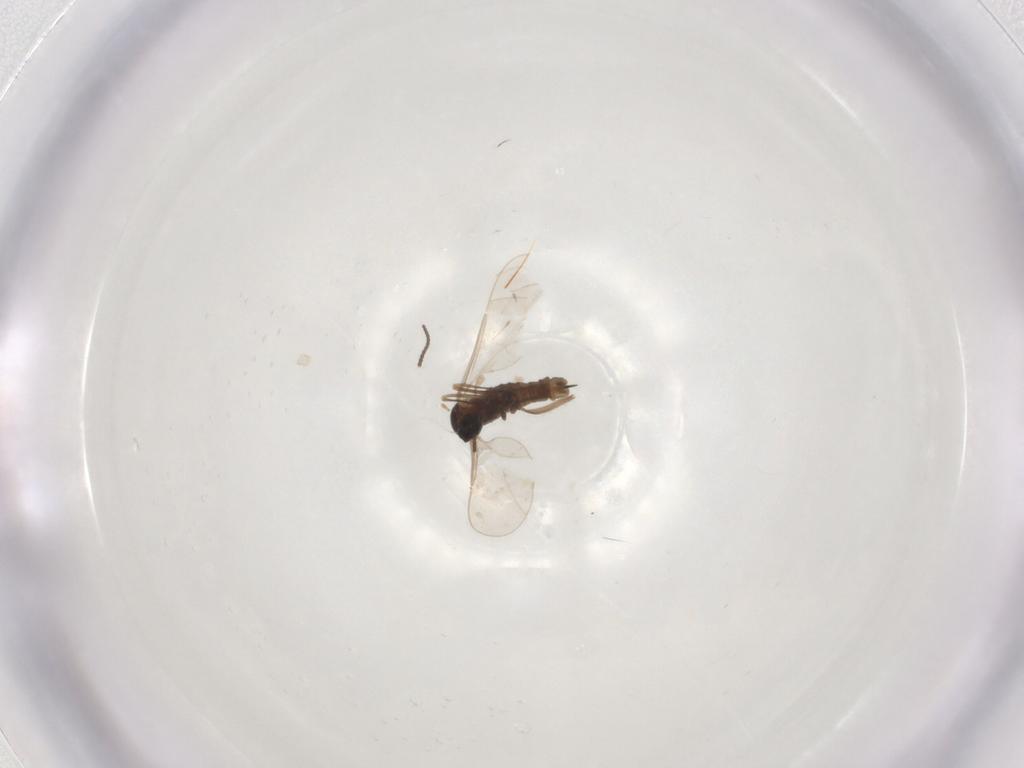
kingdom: Animalia
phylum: Arthropoda
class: Insecta
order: Diptera
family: Cecidomyiidae
